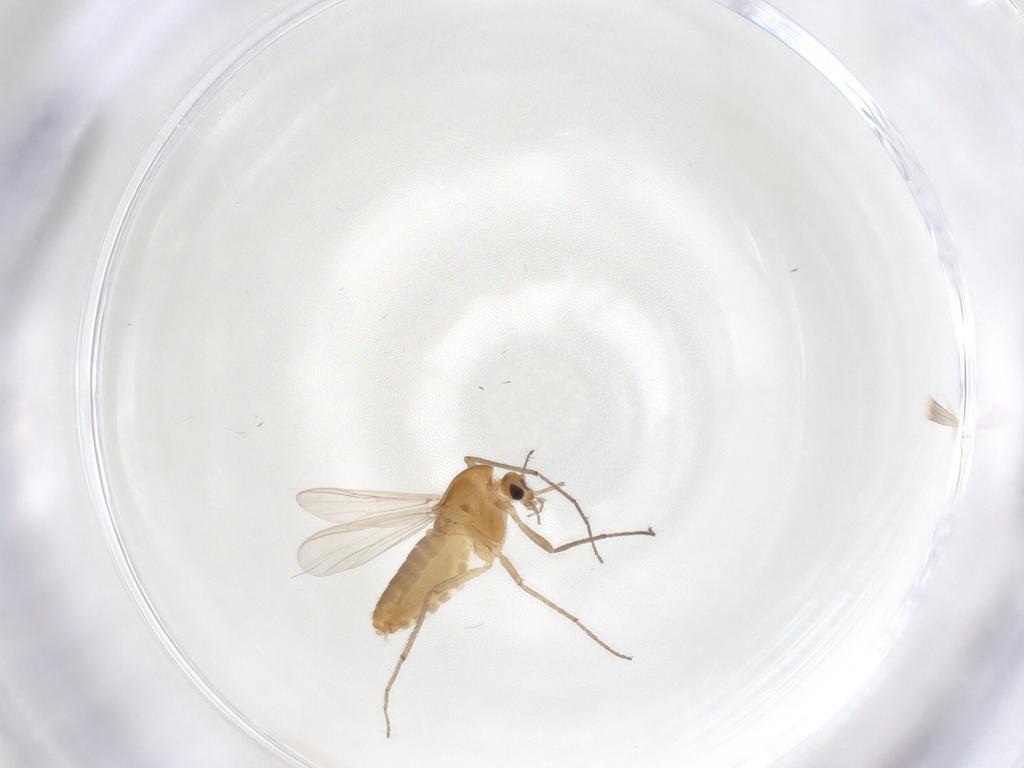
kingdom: Animalia
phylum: Arthropoda
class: Insecta
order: Diptera
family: Chironomidae
